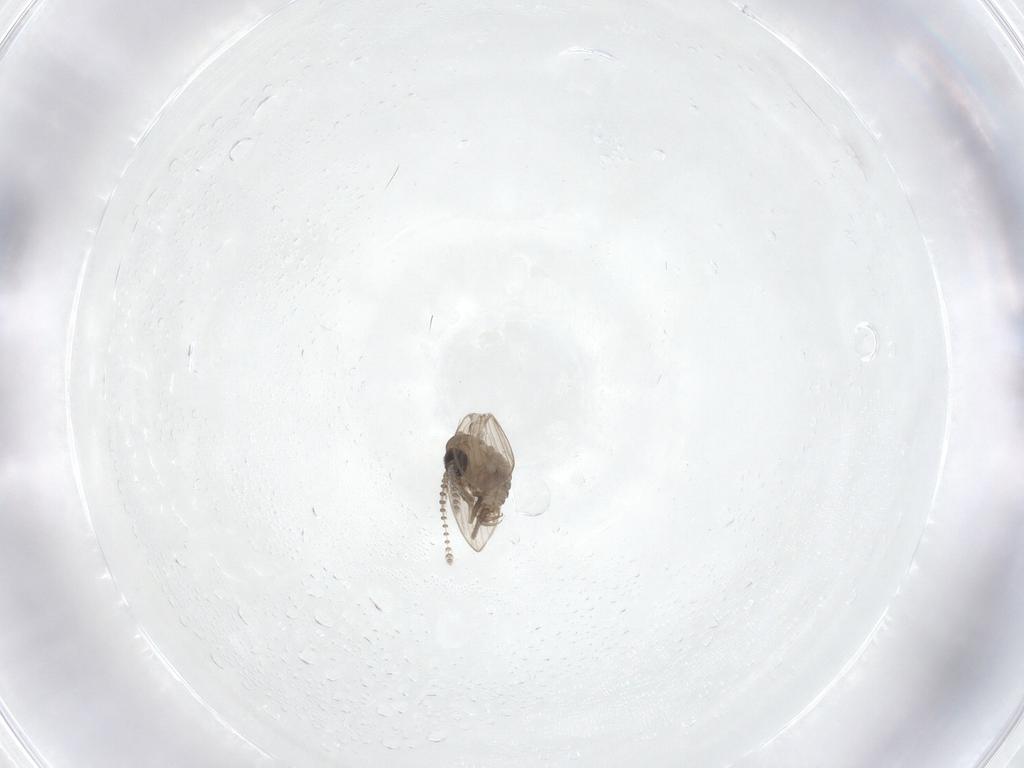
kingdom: Animalia
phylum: Arthropoda
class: Insecta
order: Diptera
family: Psychodidae
